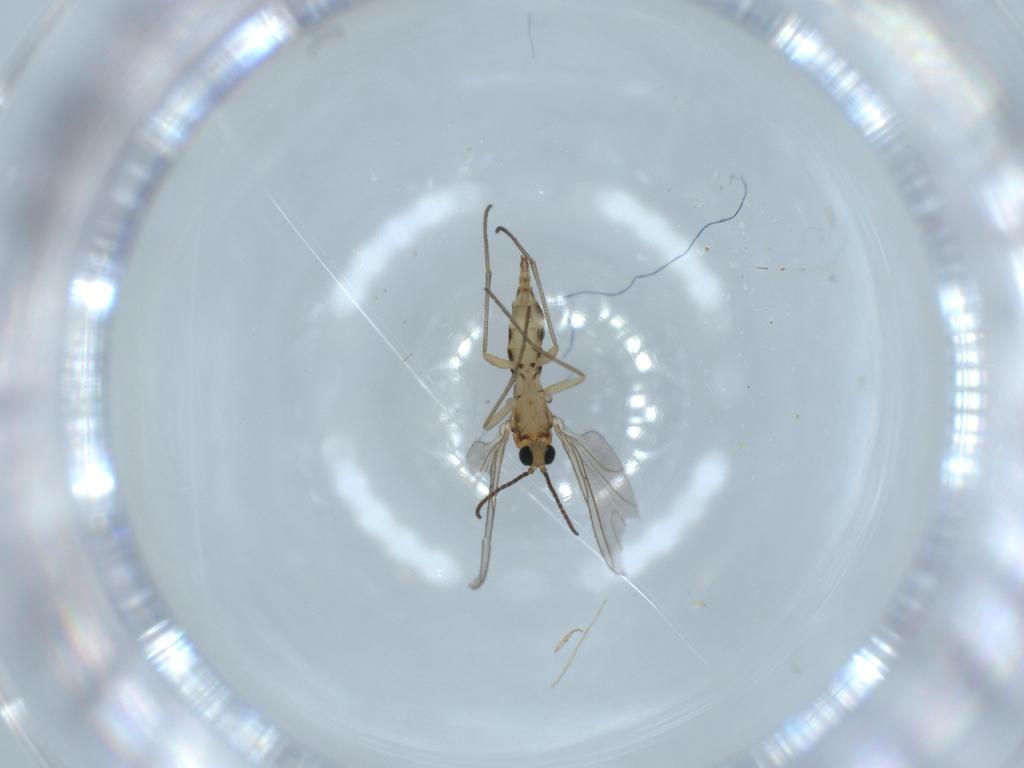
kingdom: Animalia
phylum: Arthropoda
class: Insecta
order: Diptera
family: Sciaridae
